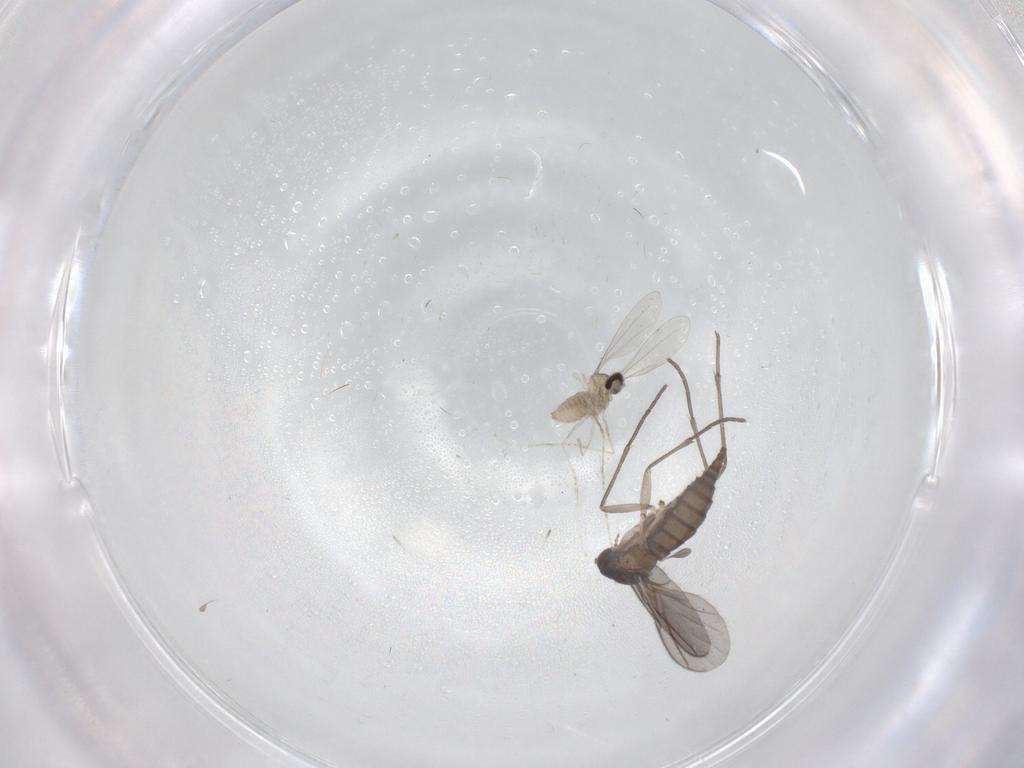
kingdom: Animalia
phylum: Arthropoda
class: Insecta
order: Diptera
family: Sciaridae
